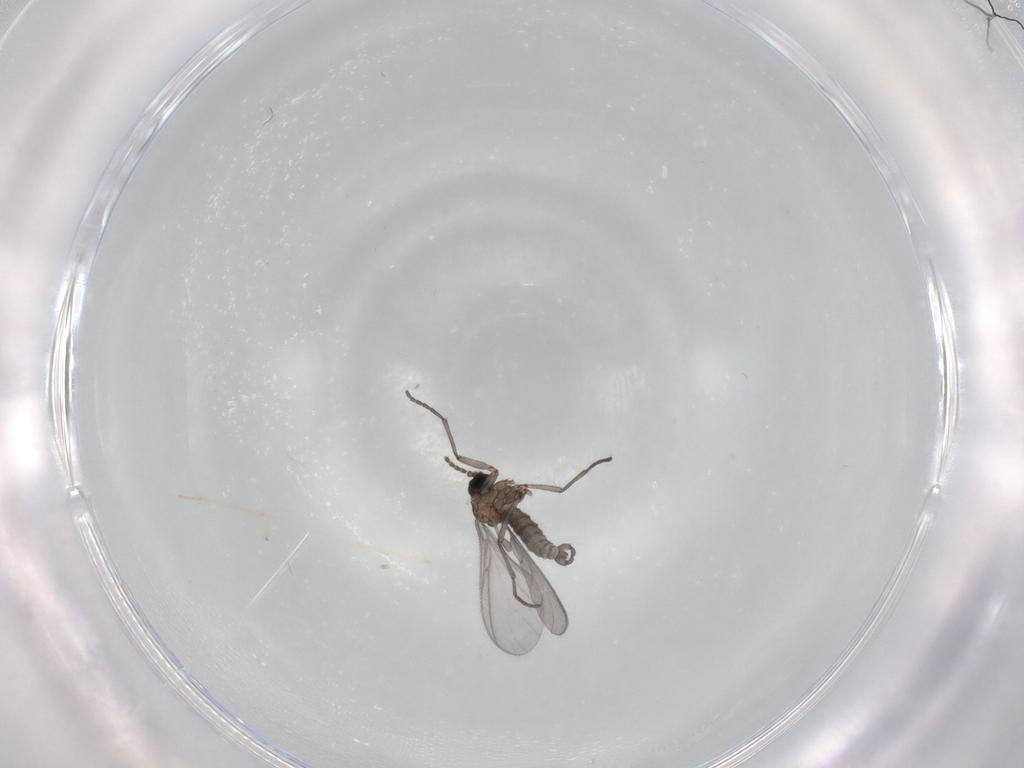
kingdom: Animalia
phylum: Arthropoda
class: Insecta
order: Diptera
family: Sciaridae
